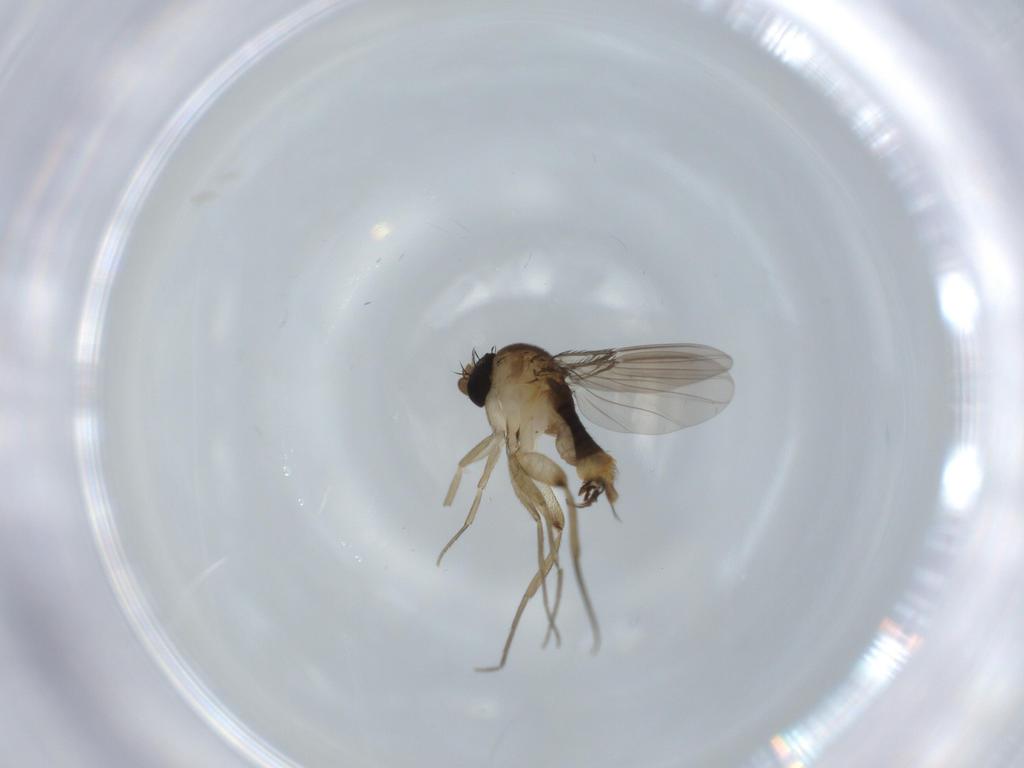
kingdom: Animalia
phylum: Arthropoda
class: Insecta
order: Diptera
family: Phoridae
